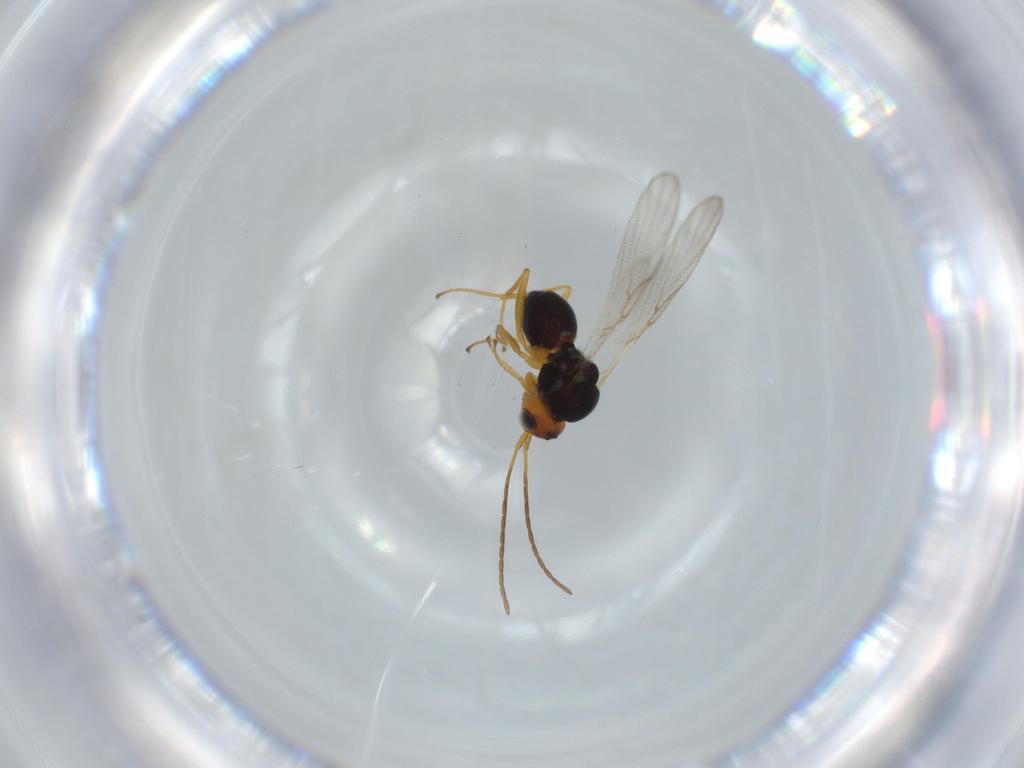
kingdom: Animalia
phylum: Arthropoda
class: Insecta
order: Hymenoptera
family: Figitidae
